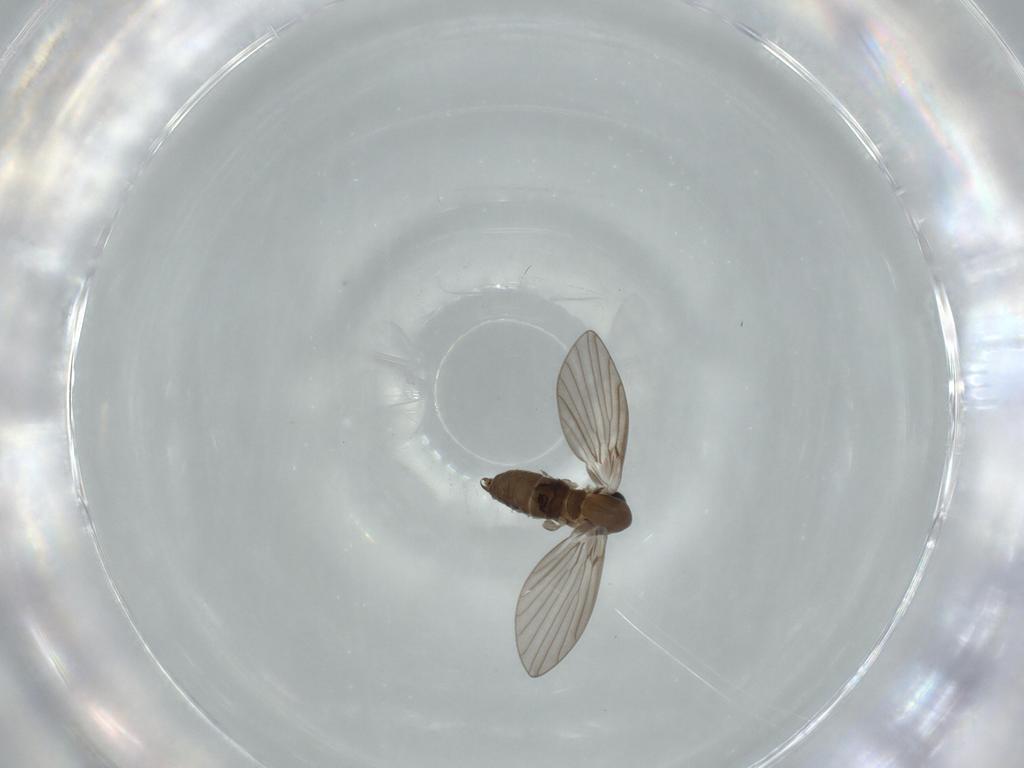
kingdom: Animalia
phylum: Arthropoda
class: Insecta
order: Diptera
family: Cecidomyiidae
